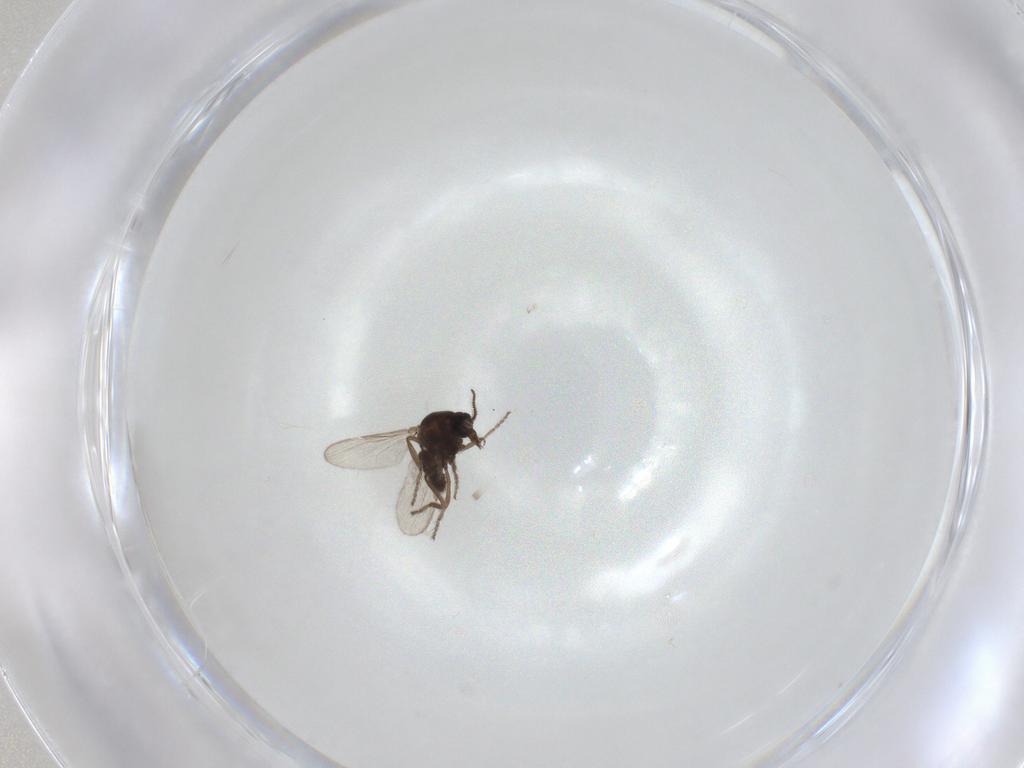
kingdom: Animalia
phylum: Arthropoda
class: Insecta
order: Diptera
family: Ceratopogonidae
